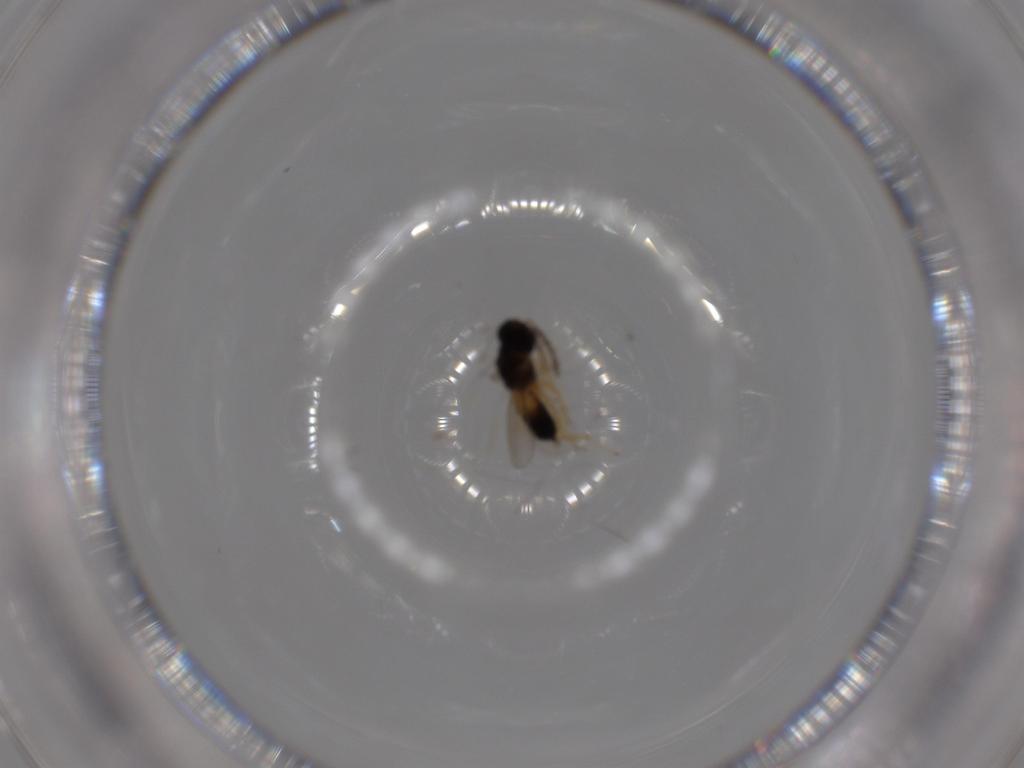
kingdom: Animalia
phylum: Arthropoda
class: Insecta
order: Hymenoptera
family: Eulophidae
